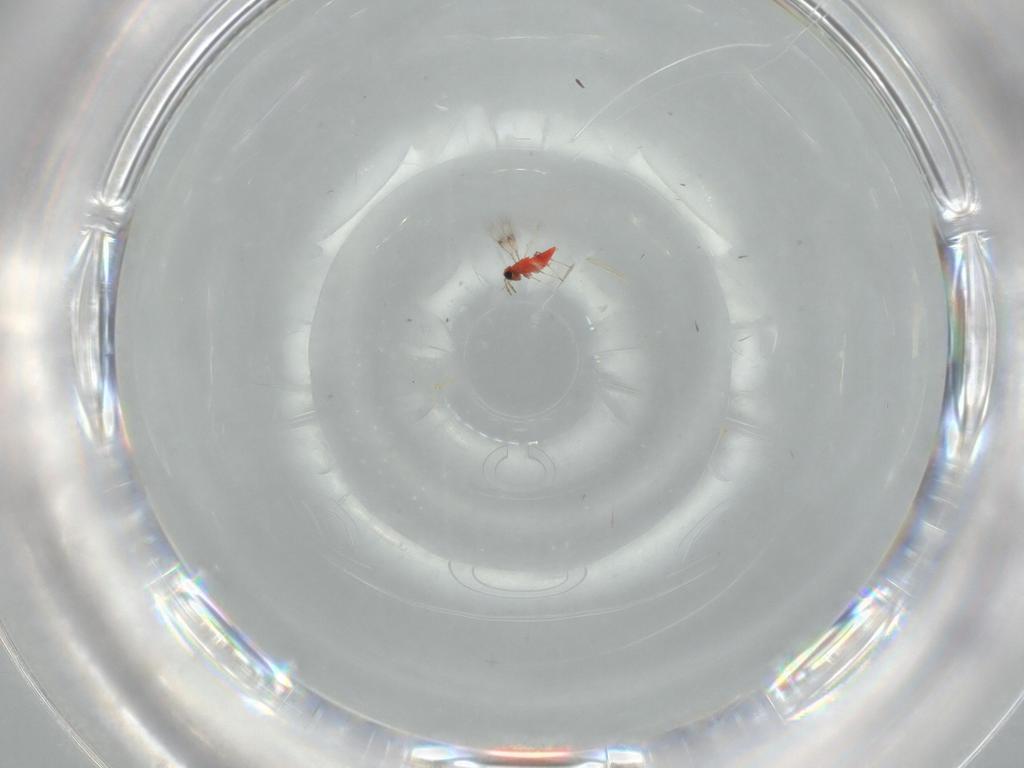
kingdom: Animalia
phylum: Arthropoda
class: Insecta
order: Hymenoptera
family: Trichogrammatidae
